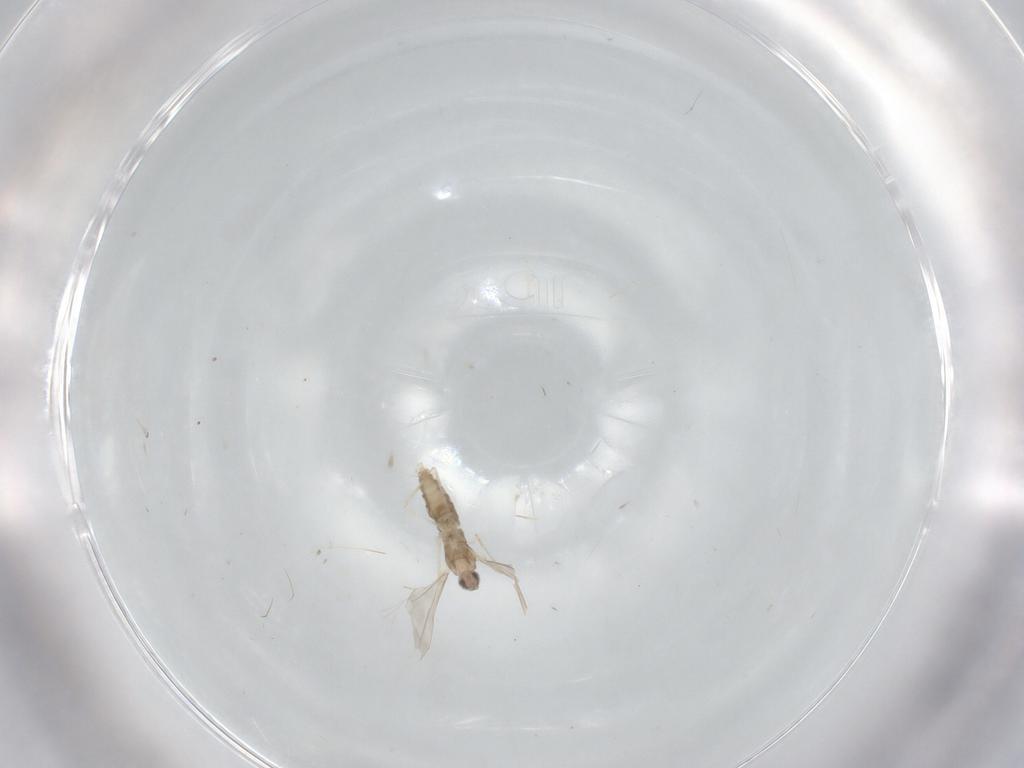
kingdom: Animalia
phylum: Arthropoda
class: Insecta
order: Diptera
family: Cecidomyiidae
